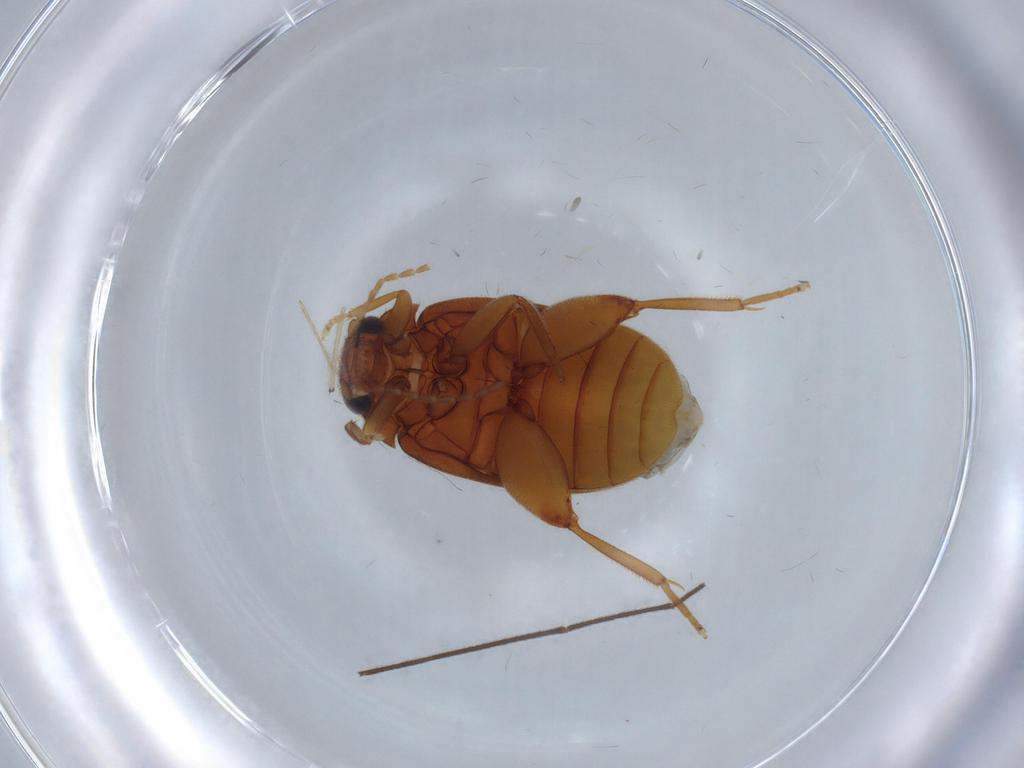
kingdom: Animalia
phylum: Arthropoda
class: Insecta
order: Coleoptera
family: Scirtidae
